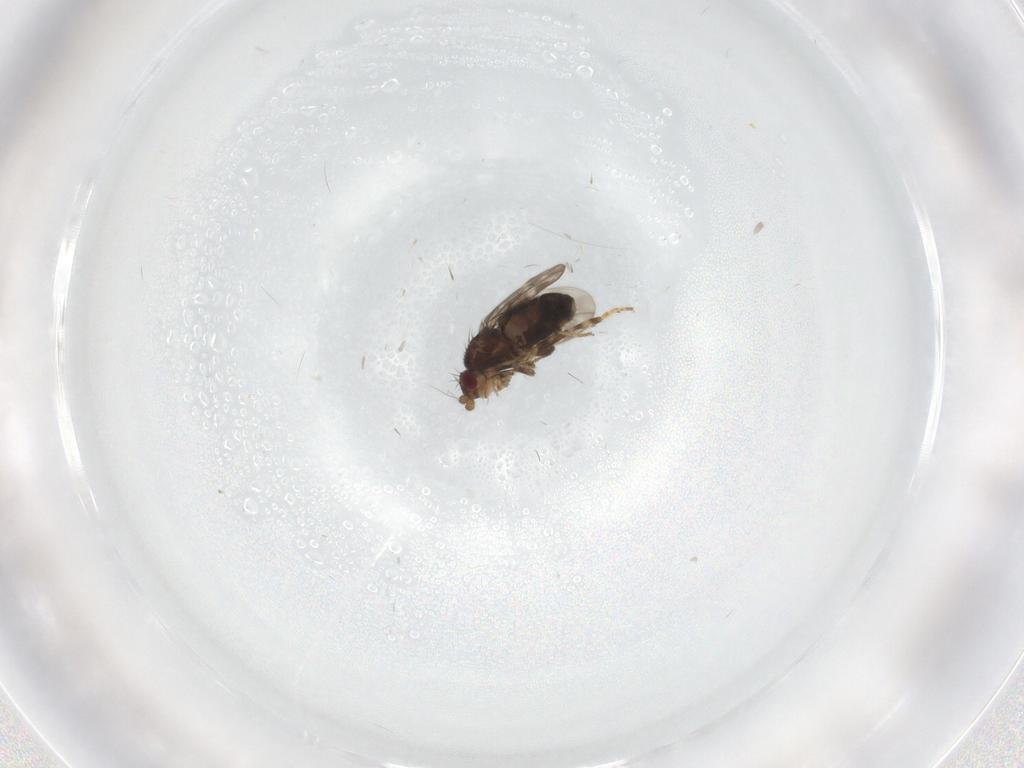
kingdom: Animalia
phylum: Arthropoda
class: Insecta
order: Diptera
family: Sphaeroceridae
